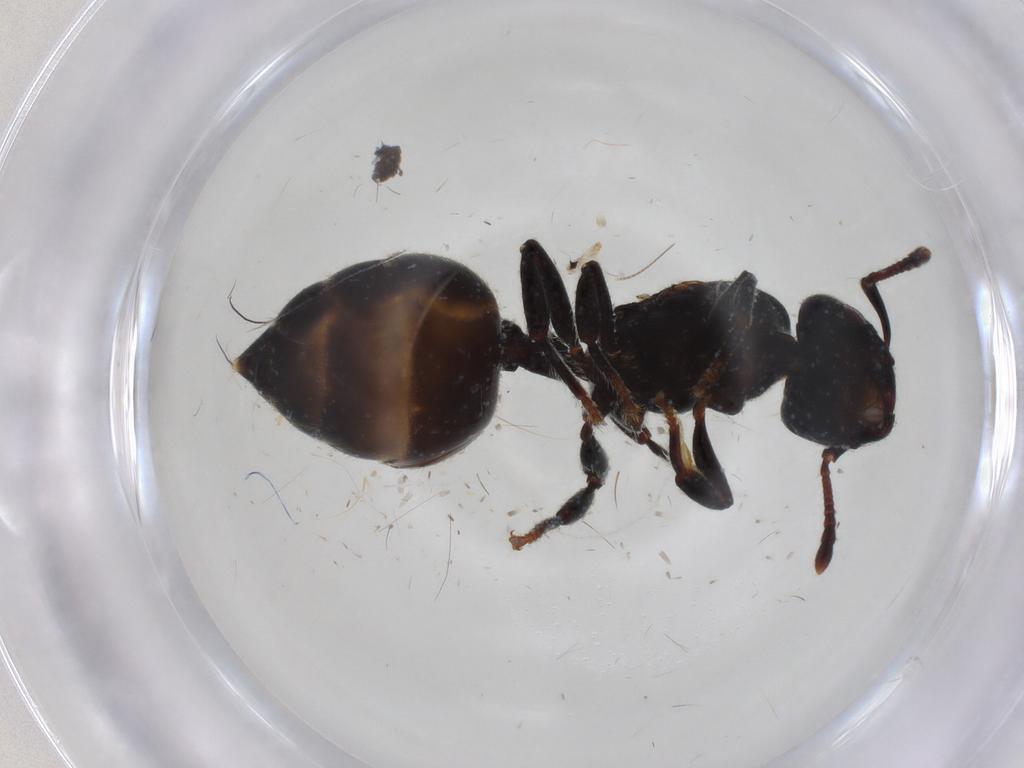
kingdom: Animalia
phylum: Arthropoda
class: Insecta
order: Hymenoptera
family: Formicidae
